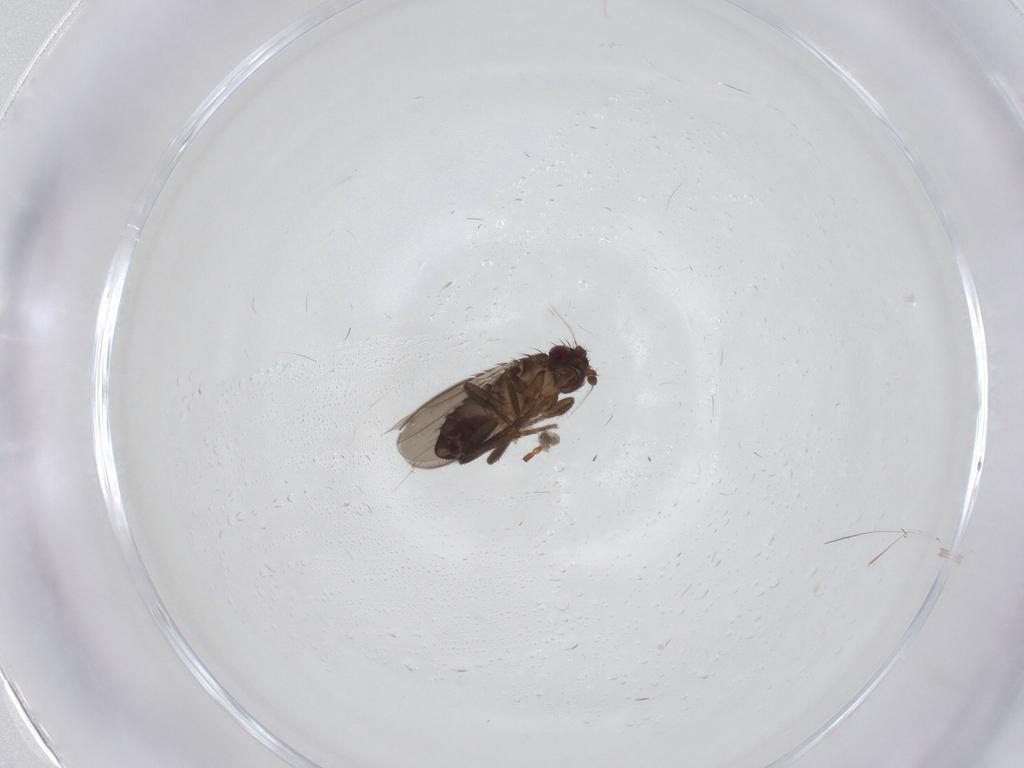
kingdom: Animalia
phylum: Arthropoda
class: Insecta
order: Diptera
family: Sphaeroceridae
